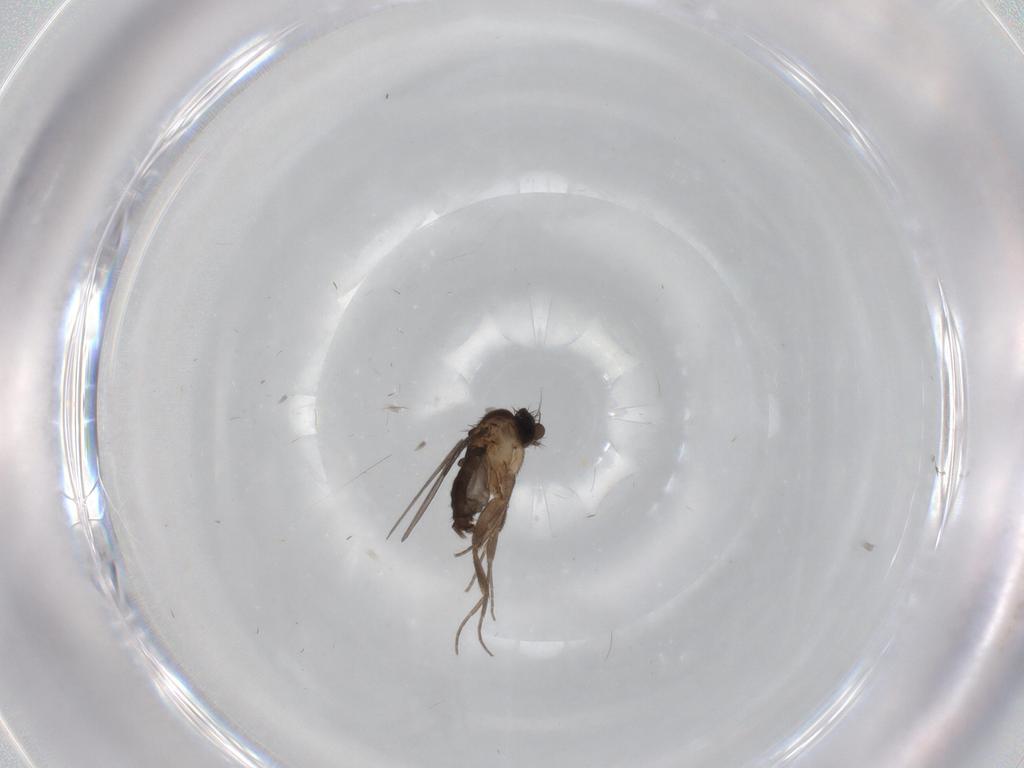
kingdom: Animalia
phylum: Arthropoda
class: Insecta
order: Diptera
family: Phoridae
